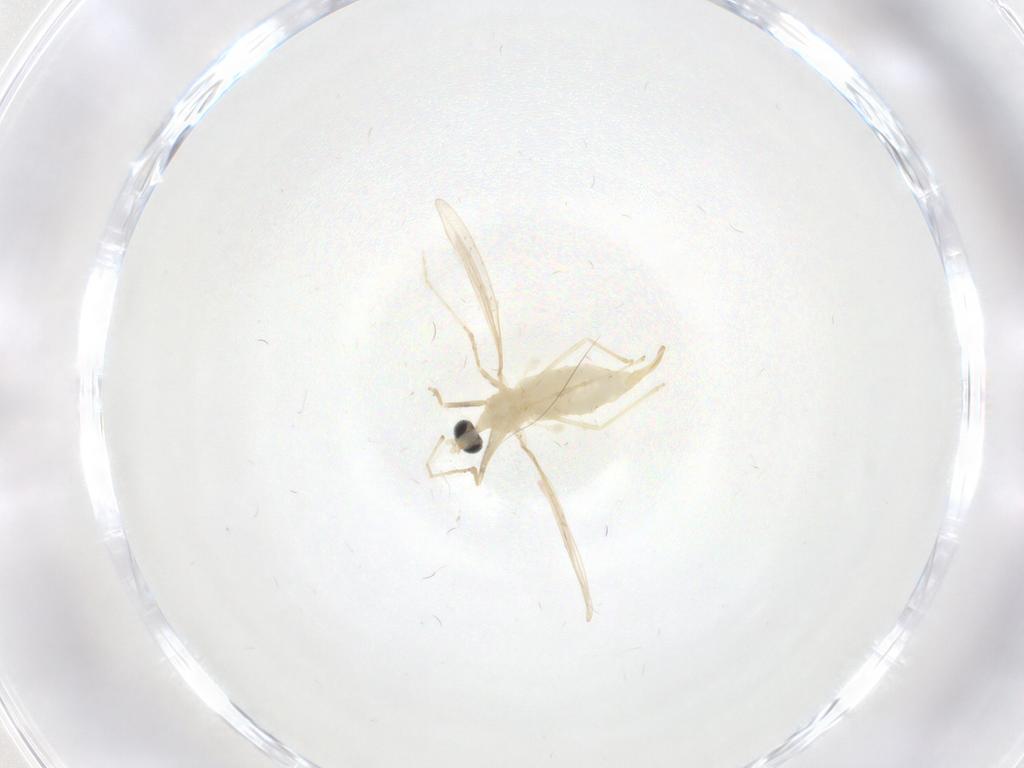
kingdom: Animalia
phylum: Arthropoda
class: Insecta
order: Diptera
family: Cecidomyiidae
